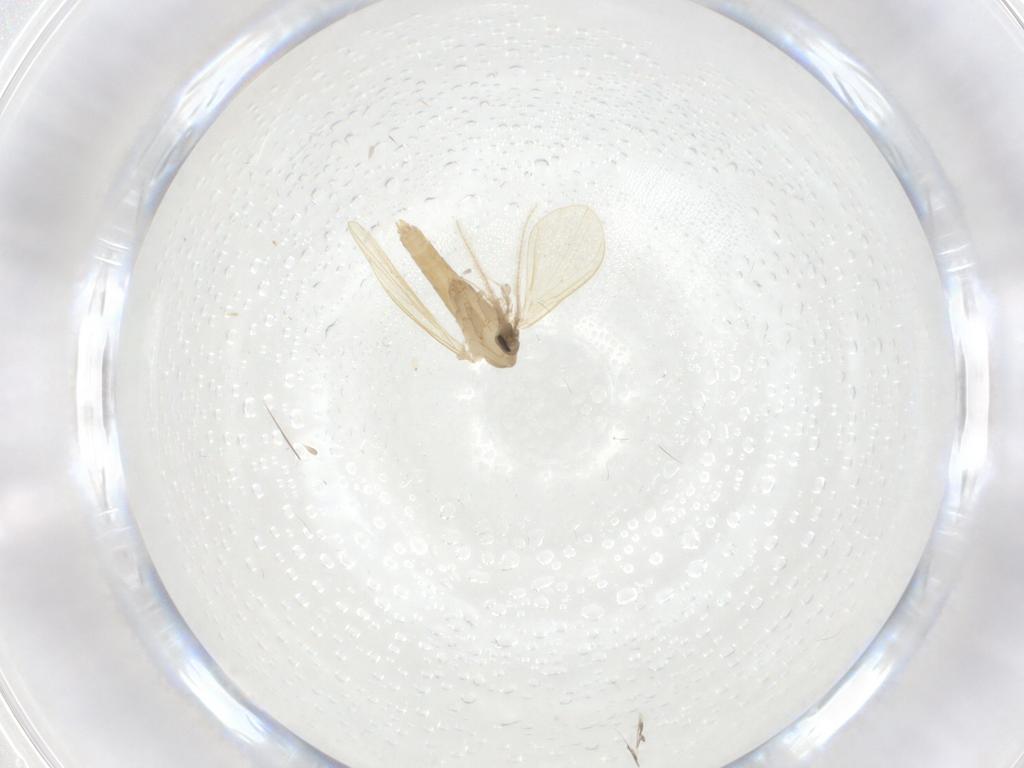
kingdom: Animalia
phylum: Arthropoda
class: Insecta
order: Diptera
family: Psychodidae
